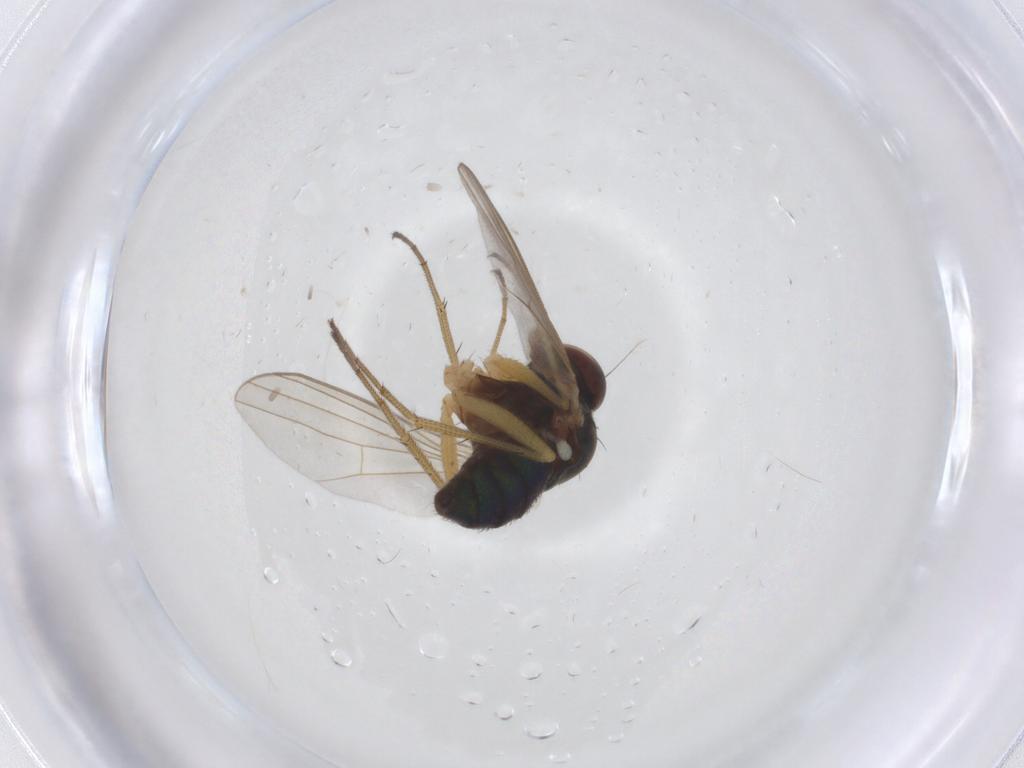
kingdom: Animalia
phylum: Arthropoda
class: Insecta
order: Diptera
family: Dolichopodidae
